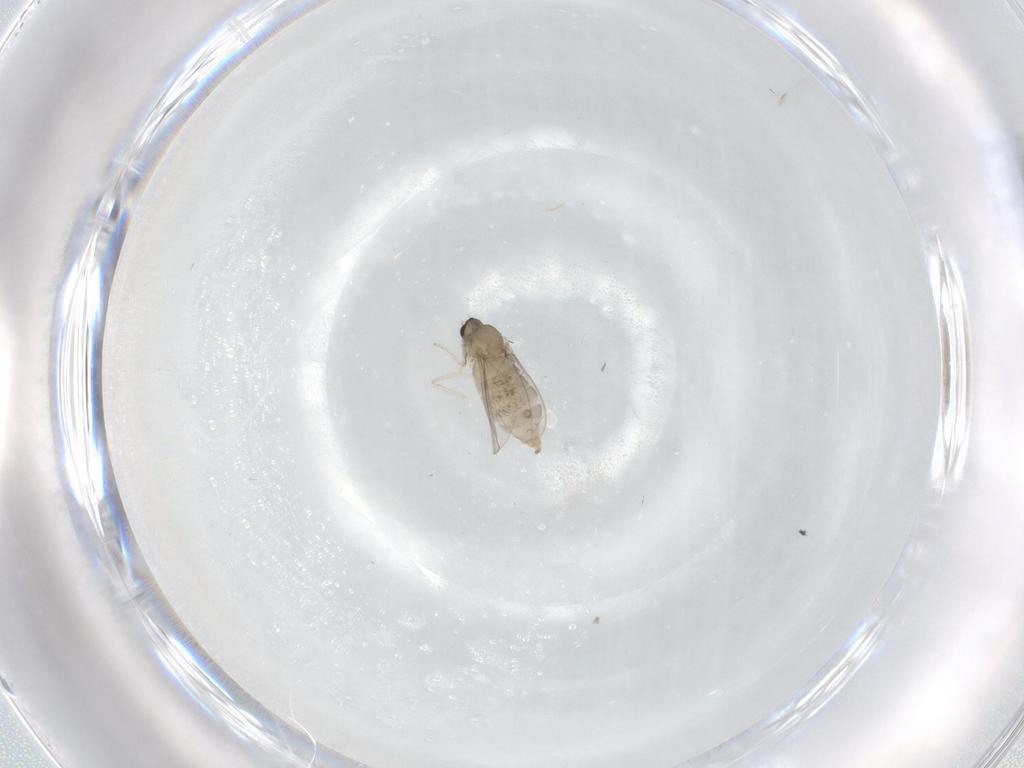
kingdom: Animalia
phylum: Arthropoda
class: Insecta
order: Diptera
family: Cecidomyiidae
